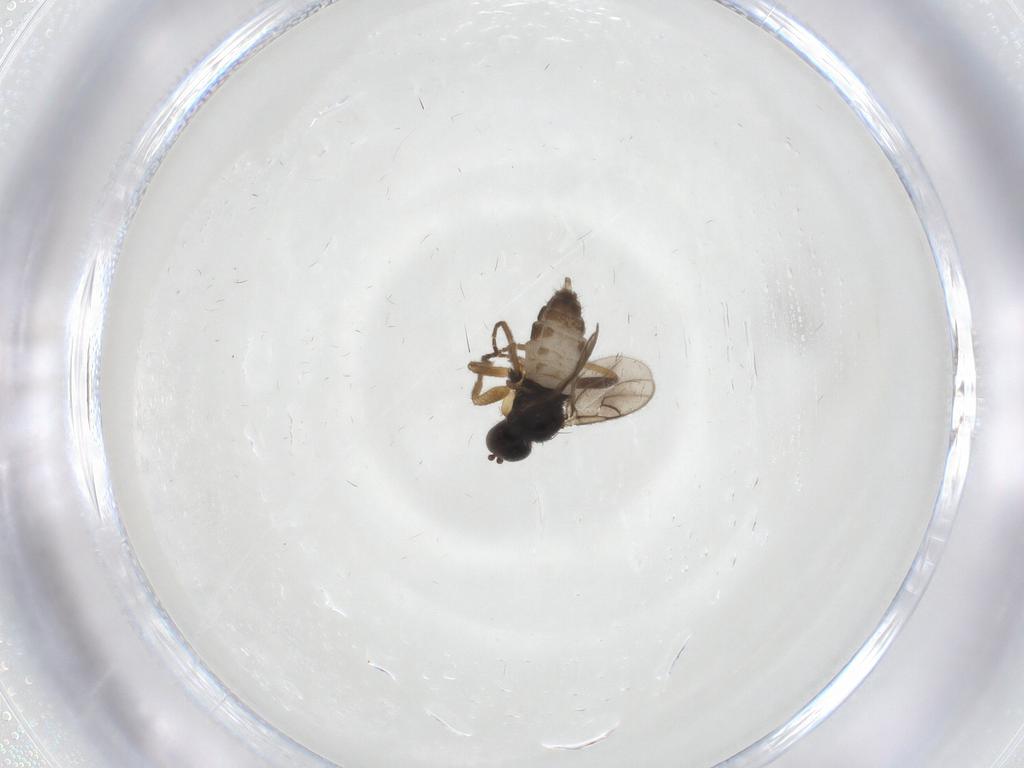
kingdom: Animalia
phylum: Arthropoda
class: Insecta
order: Diptera
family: Hybotidae
